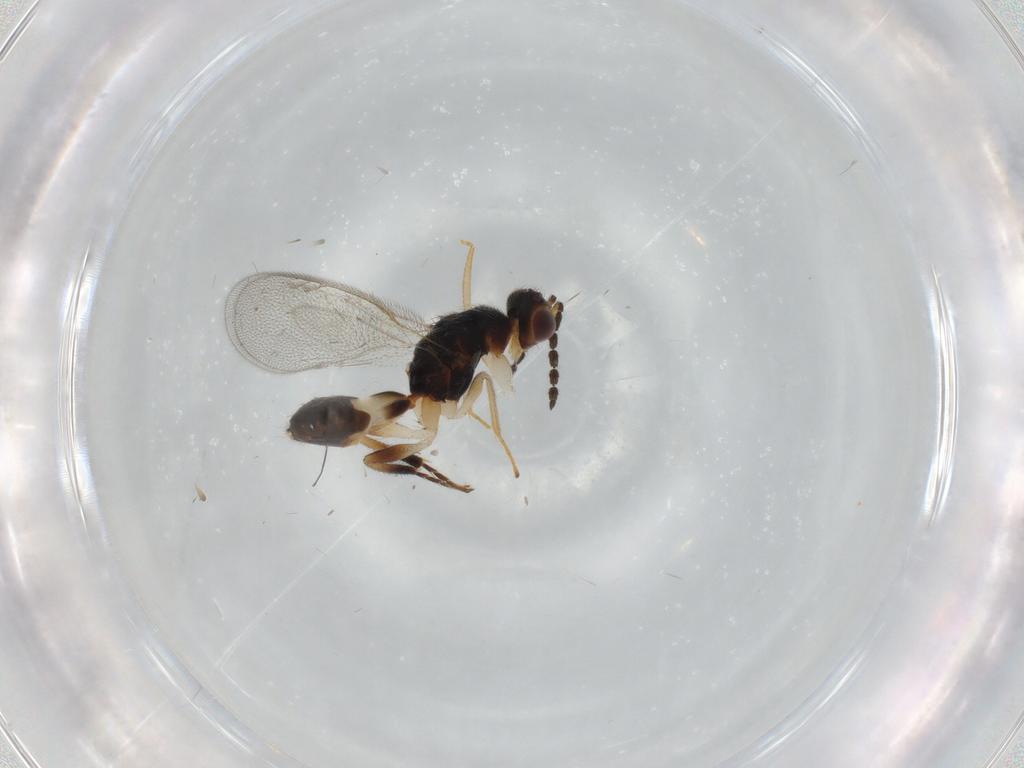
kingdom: Animalia
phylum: Arthropoda
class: Insecta
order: Hymenoptera
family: Eulophidae
